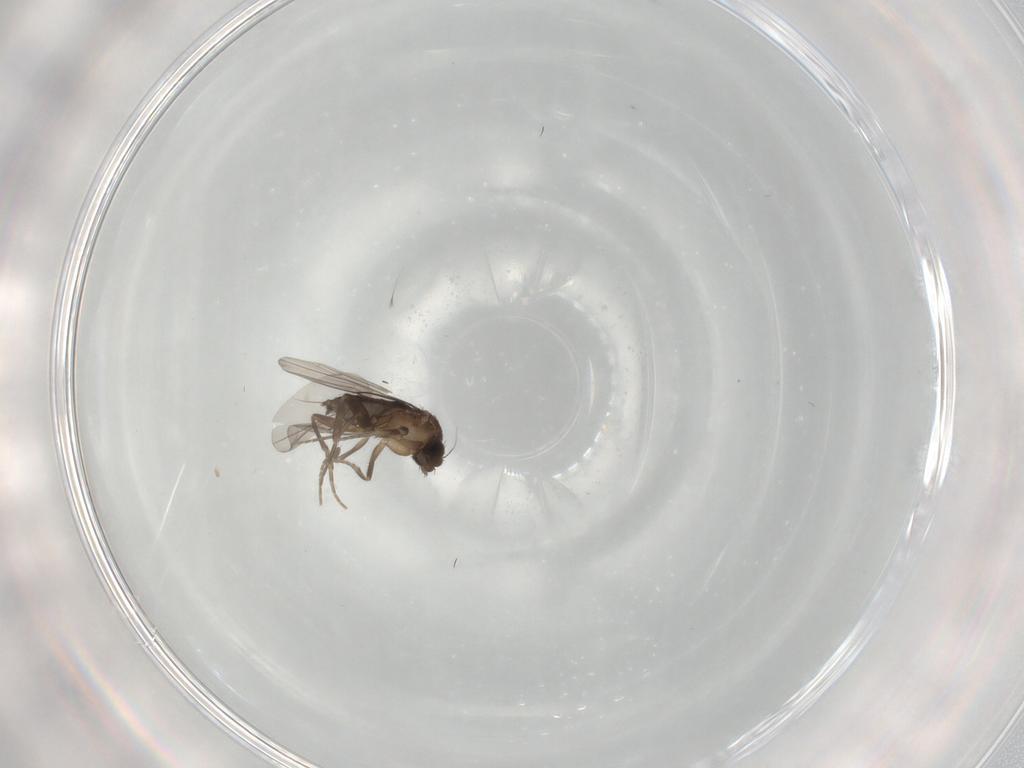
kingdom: Animalia
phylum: Arthropoda
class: Insecta
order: Diptera
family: Phoridae
